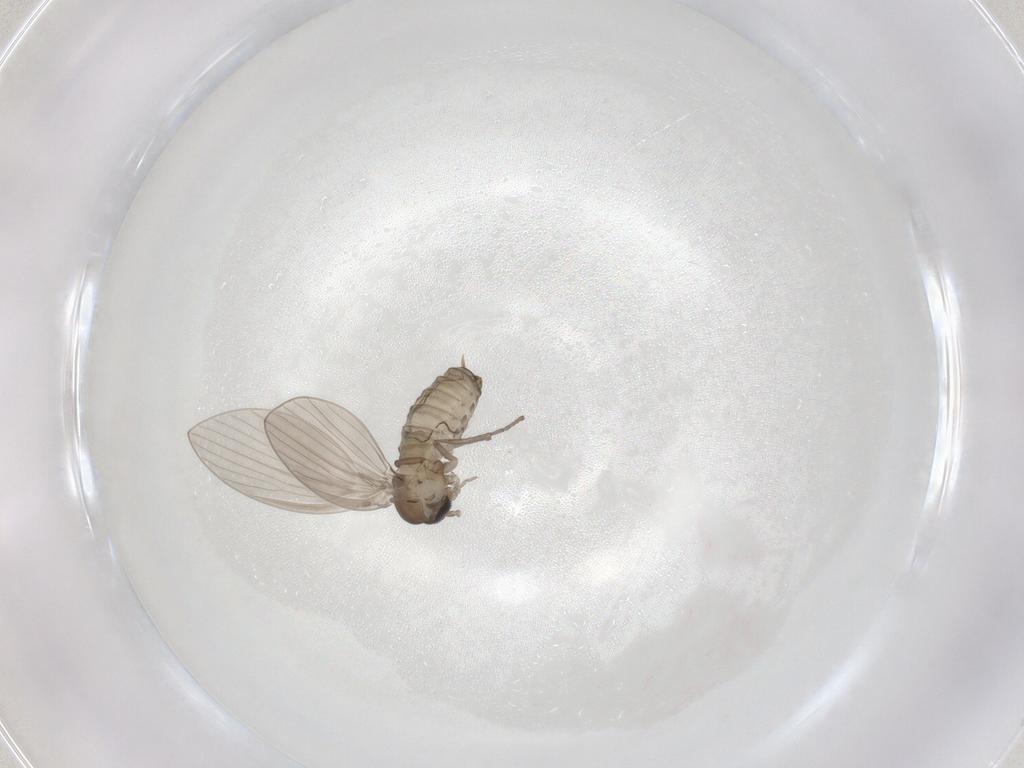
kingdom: Animalia
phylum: Arthropoda
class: Insecta
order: Diptera
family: Psychodidae
